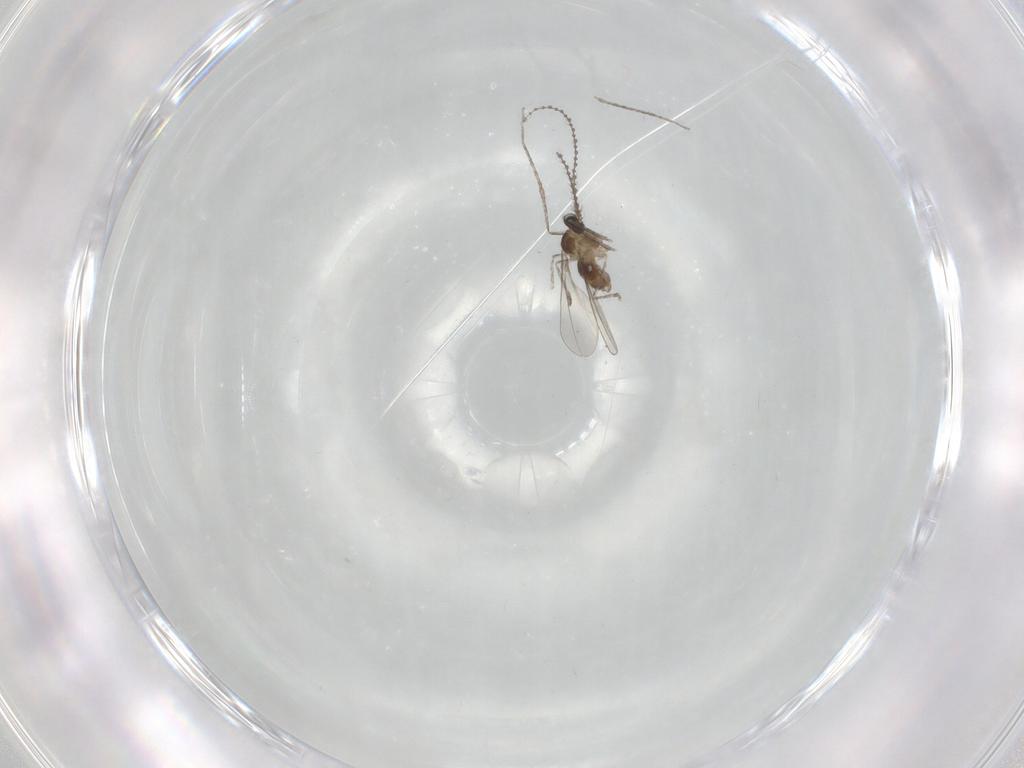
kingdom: Animalia
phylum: Arthropoda
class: Insecta
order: Diptera
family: Cecidomyiidae
